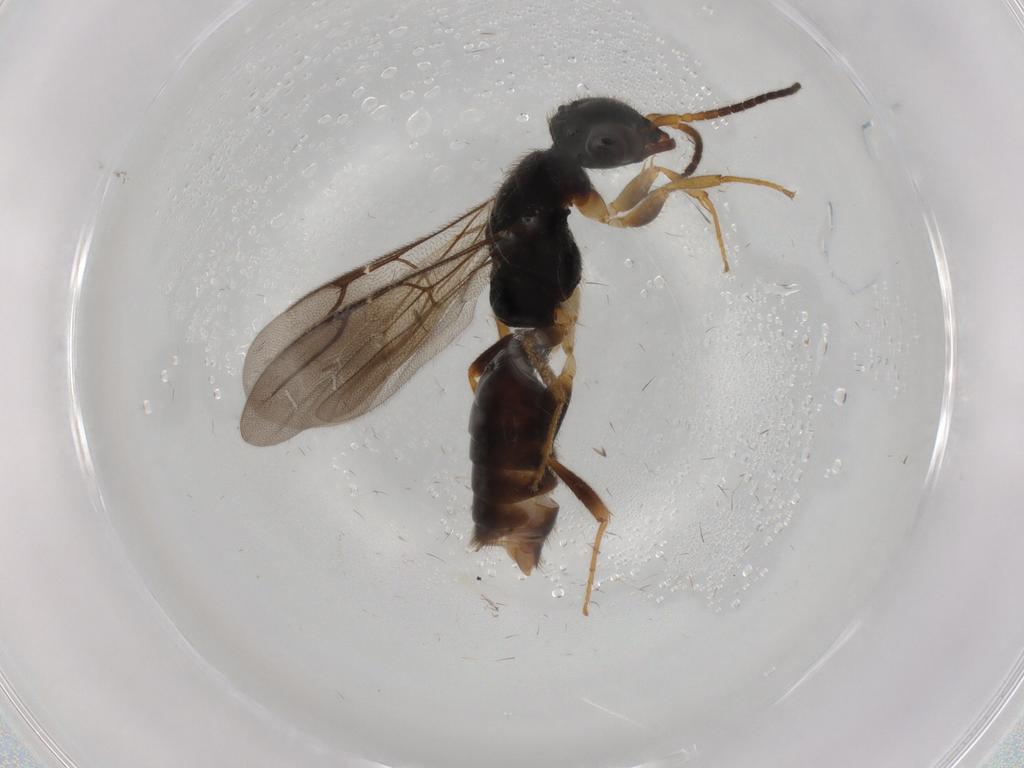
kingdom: Animalia
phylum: Arthropoda
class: Insecta
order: Hymenoptera
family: Bethylidae
